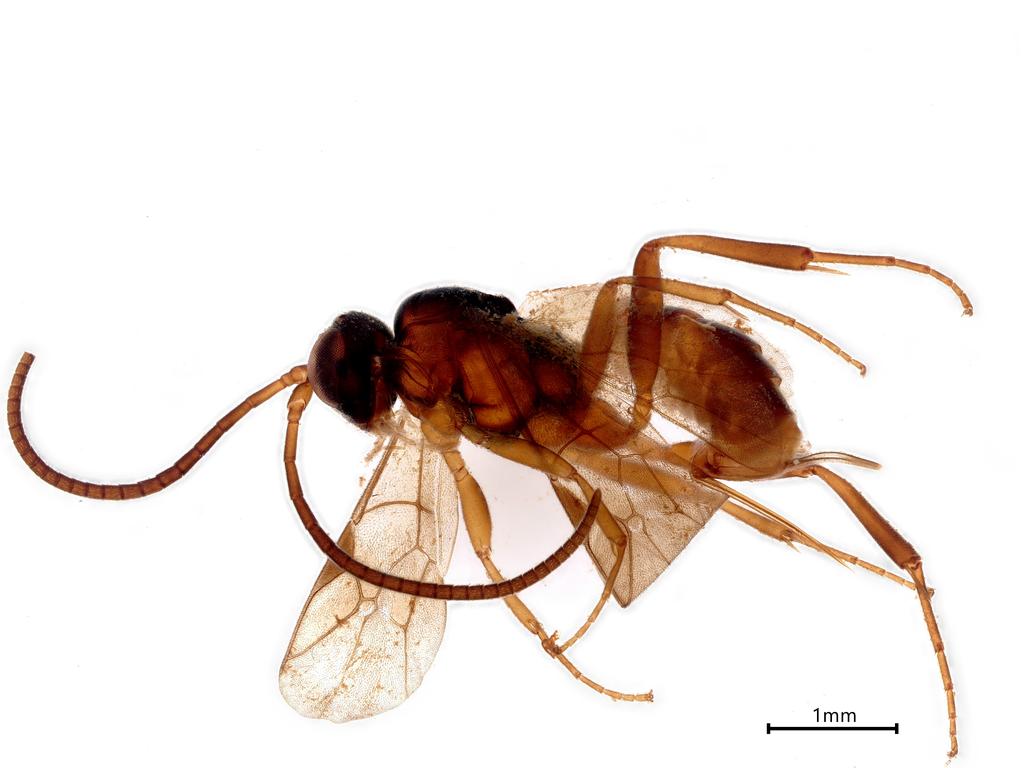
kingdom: Animalia
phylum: Arthropoda
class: Insecta
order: Hymenoptera
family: Ichneumonidae
